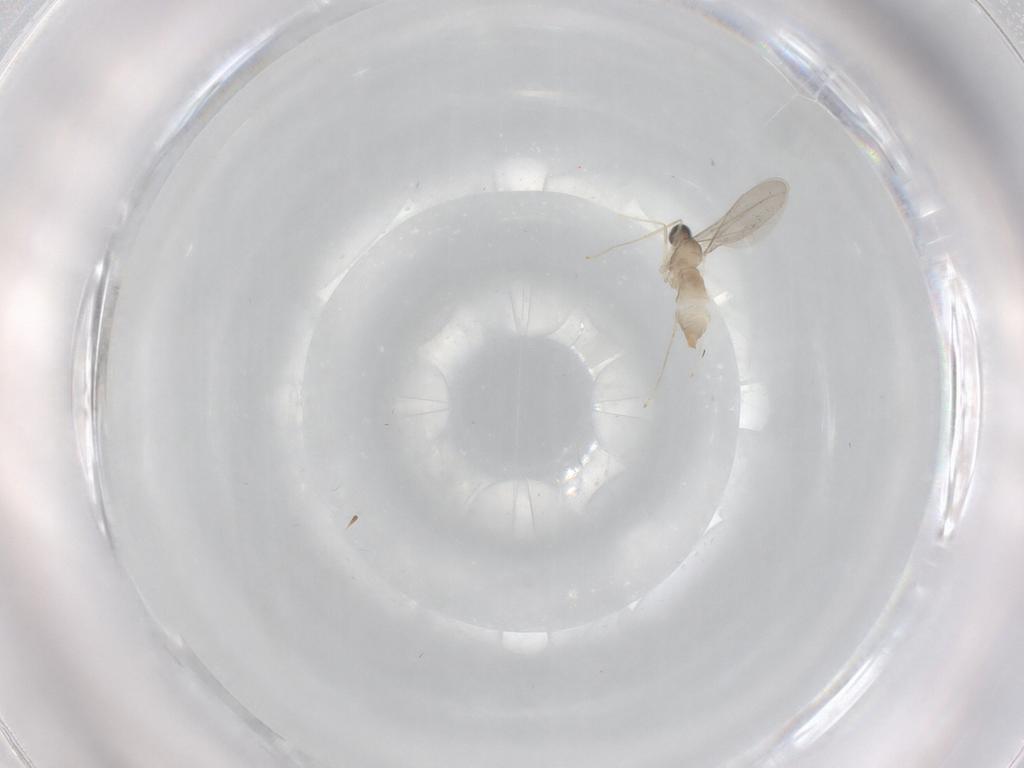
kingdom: Animalia
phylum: Arthropoda
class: Insecta
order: Diptera
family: Cecidomyiidae
